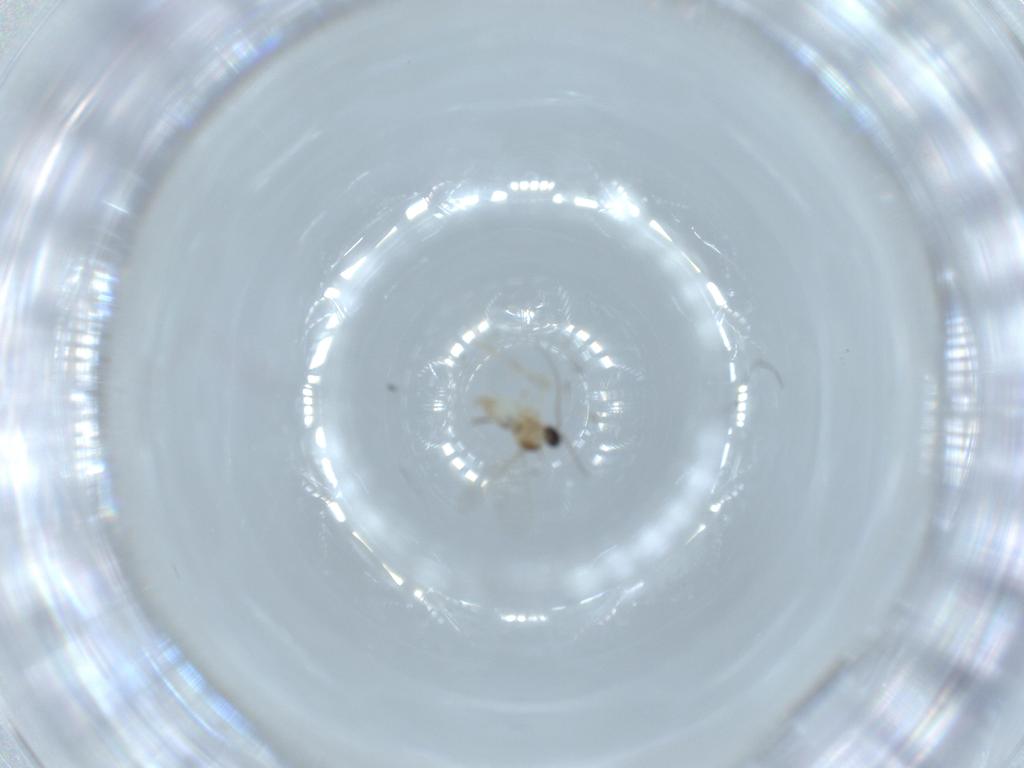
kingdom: Animalia
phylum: Arthropoda
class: Insecta
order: Diptera
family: Cecidomyiidae
